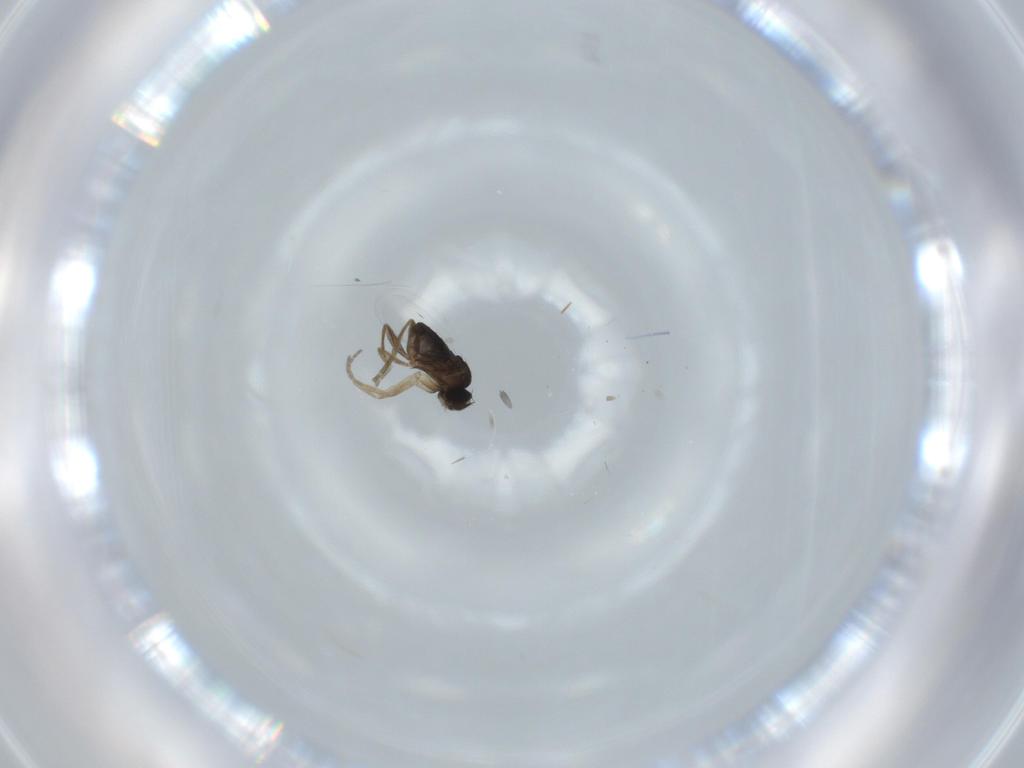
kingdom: Animalia
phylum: Arthropoda
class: Insecta
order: Diptera
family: Phoridae
